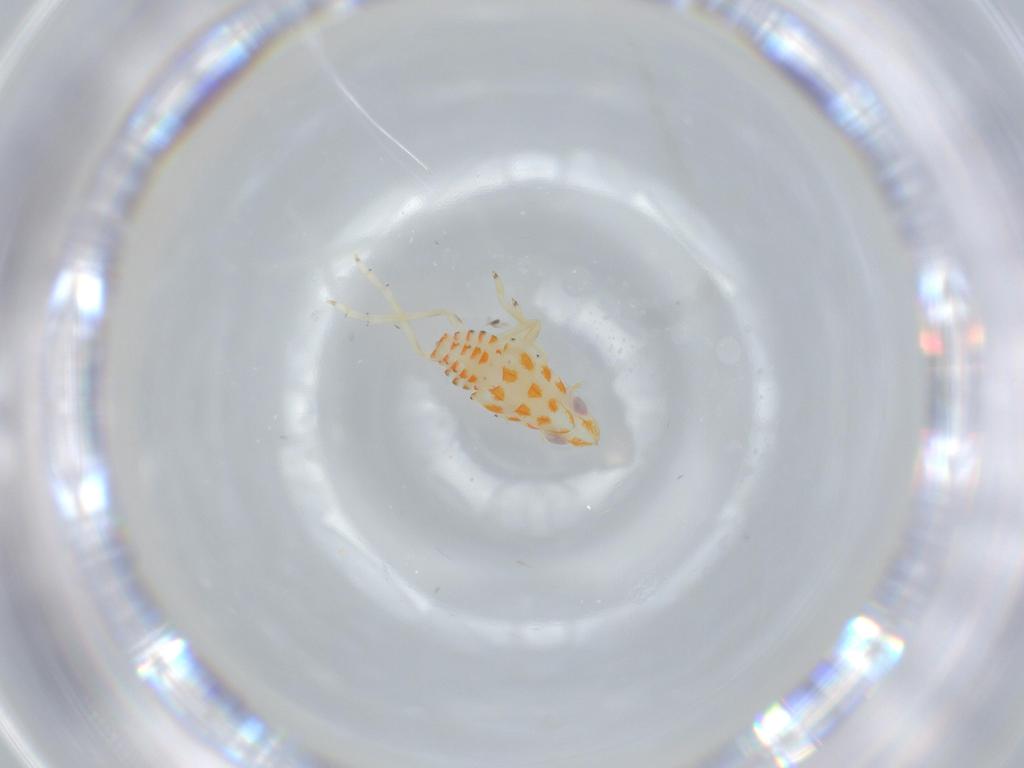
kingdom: Animalia
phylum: Arthropoda
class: Insecta
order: Hemiptera
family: Tropiduchidae
